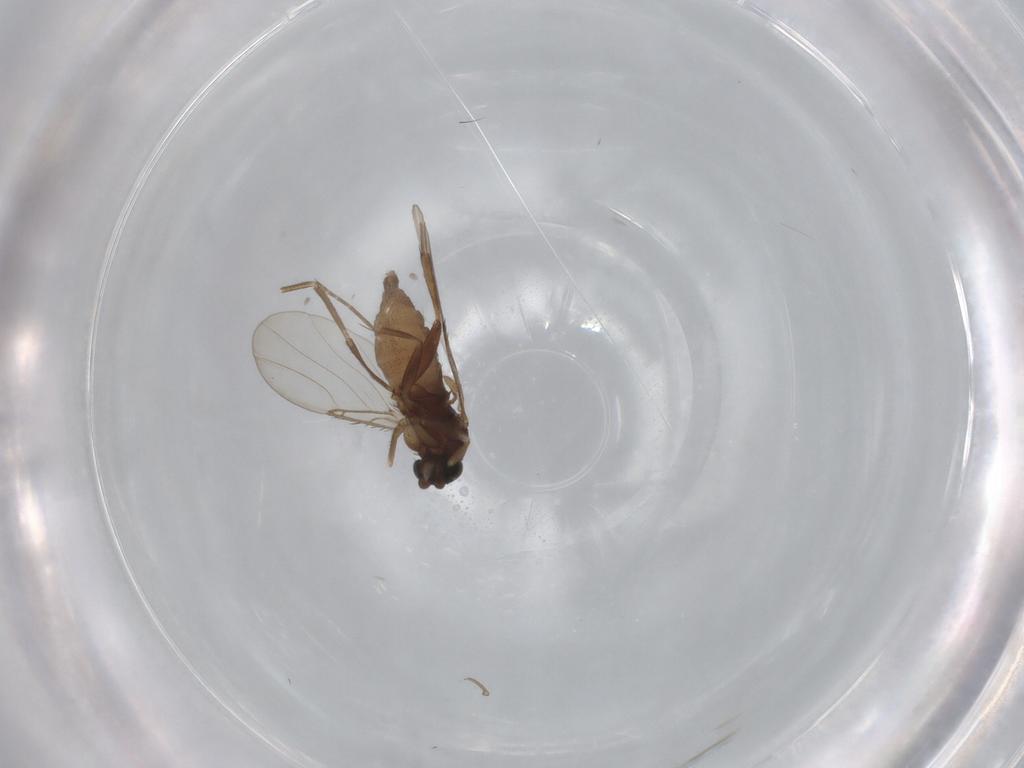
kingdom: Animalia
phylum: Arthropoda
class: Insecta
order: Diptera
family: Phoridae
